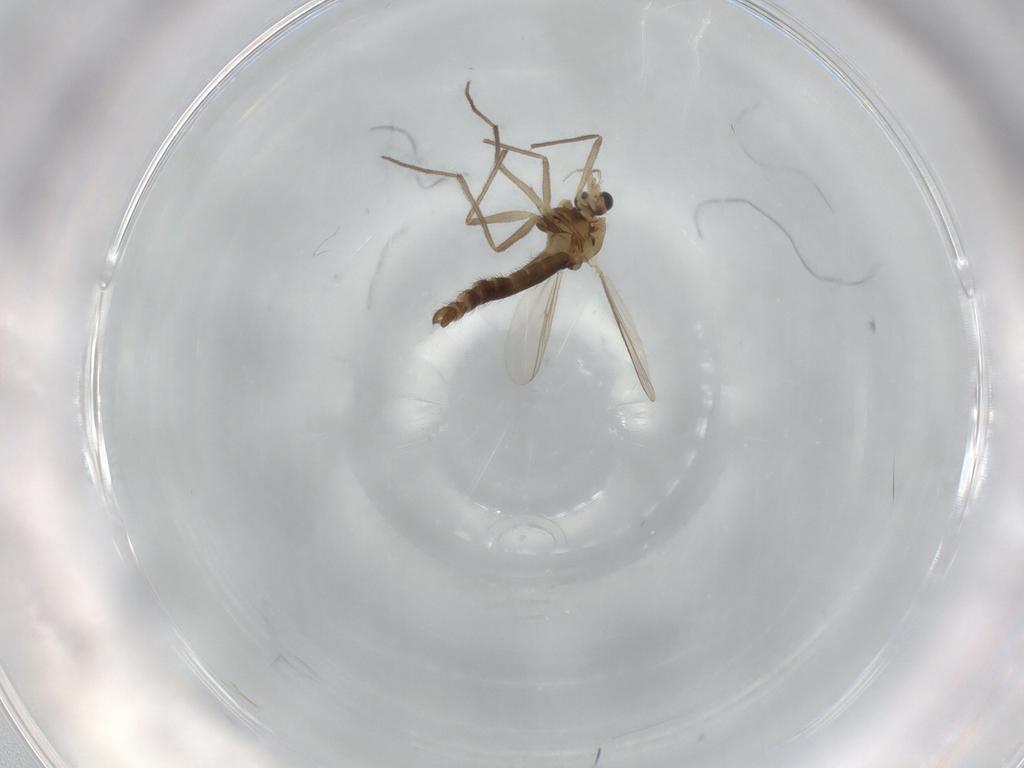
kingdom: Animalia
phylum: Arthropoda
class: Insecta
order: Diptera
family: Chironomidae
